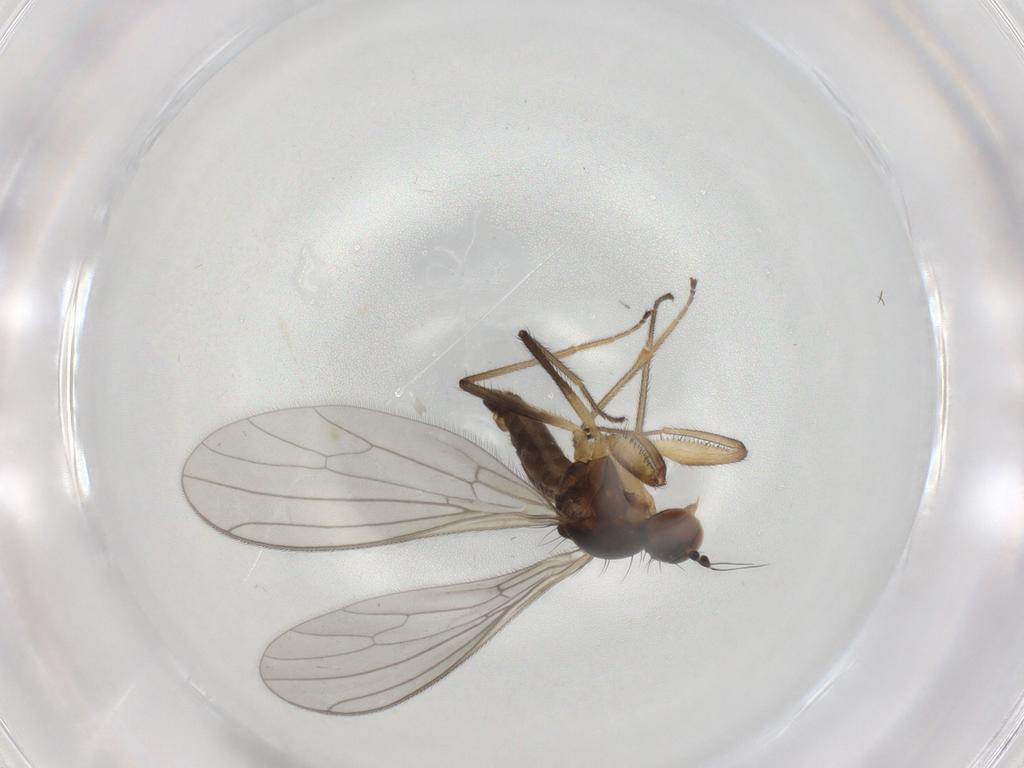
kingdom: Animalia
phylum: Arthropoda
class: Insecta
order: Diptera
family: Chironomidae
